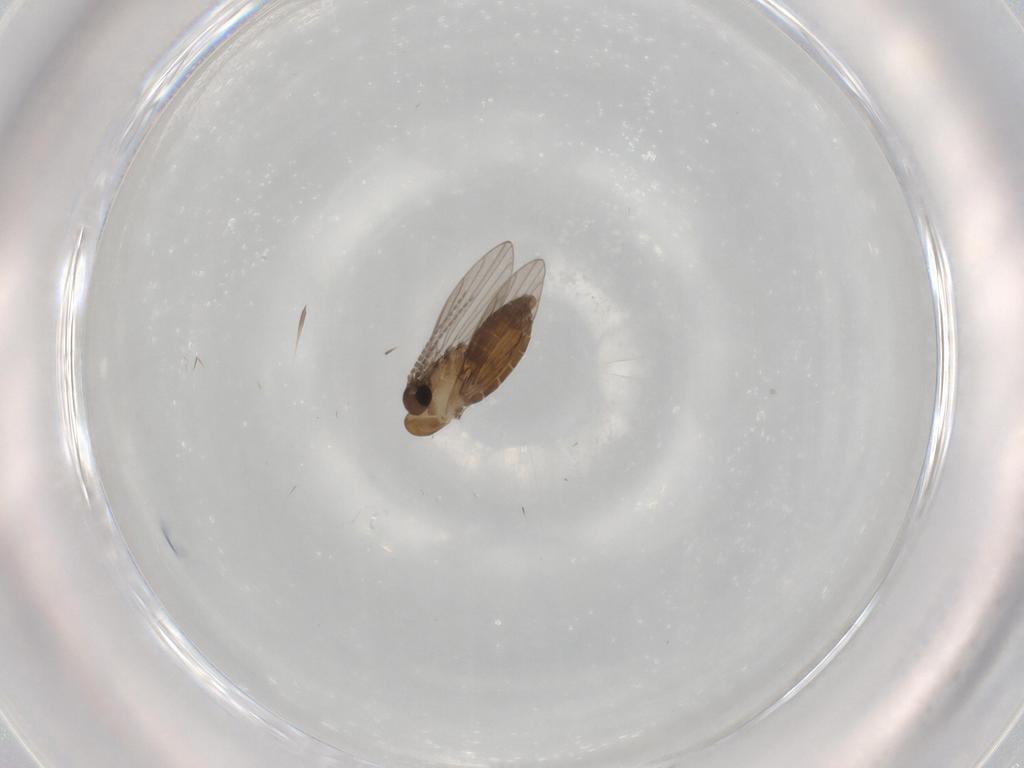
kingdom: Animalia
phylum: Arthropoda
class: Insecta
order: Diptera
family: Psychodidae
